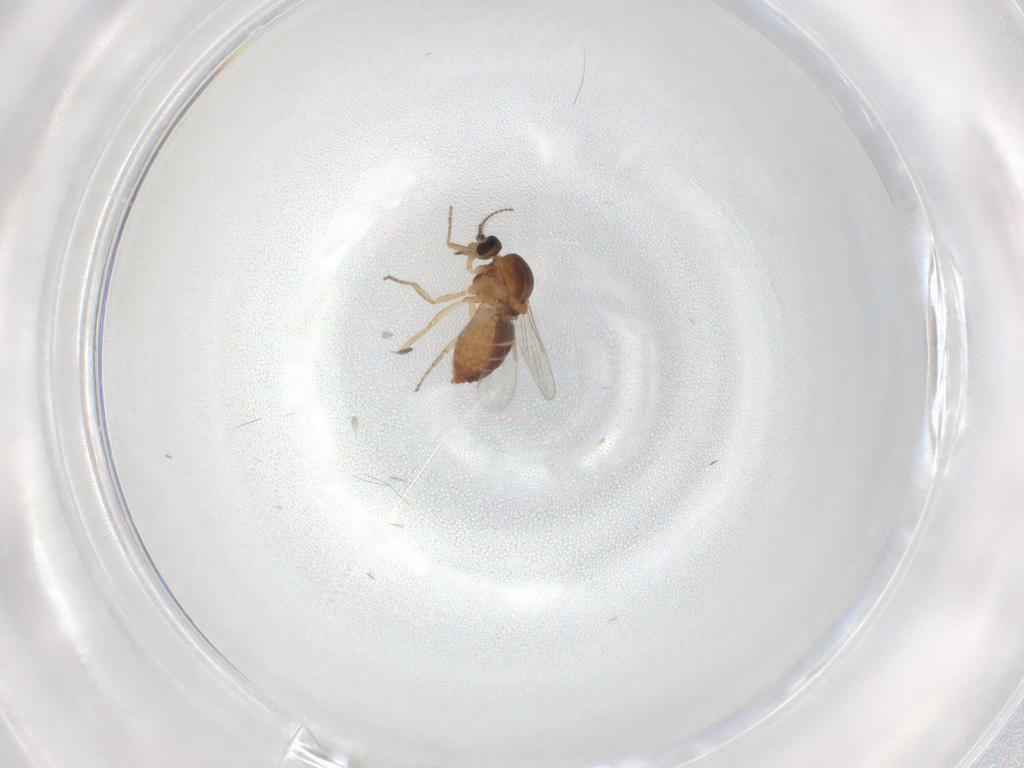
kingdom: Animalia
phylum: Arthropoda
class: Insecta
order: Diptera
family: Ceratopogonidae
